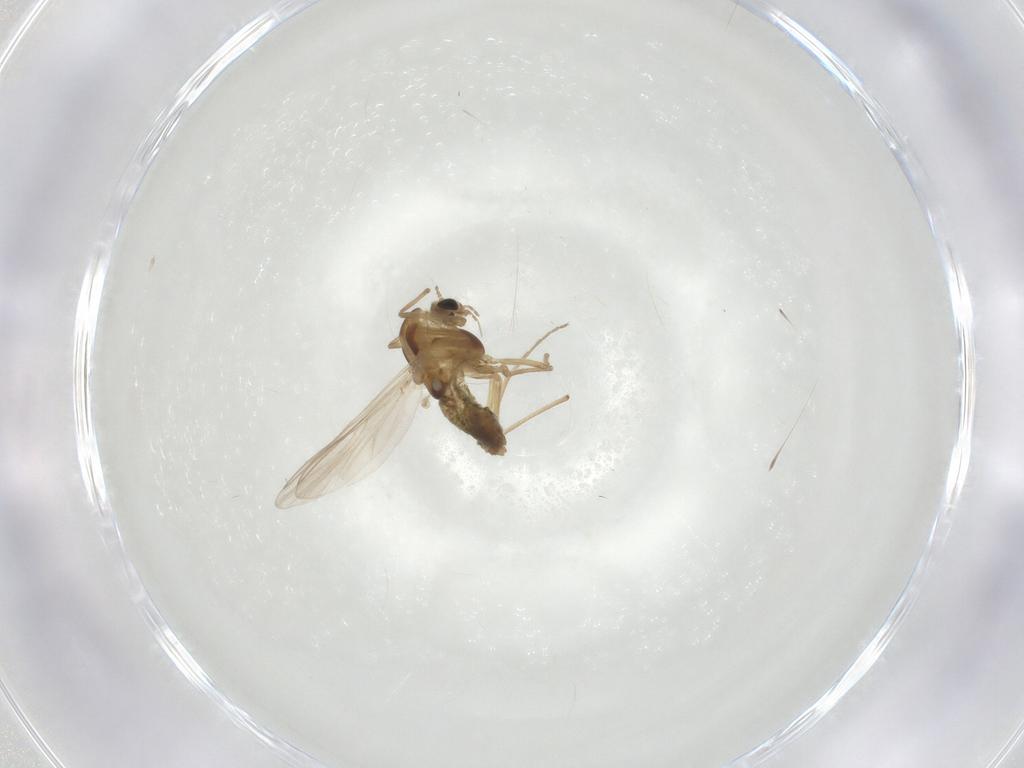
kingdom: Animalia
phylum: Arthropoda
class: Insecta
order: Diptera
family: Chironomidae
